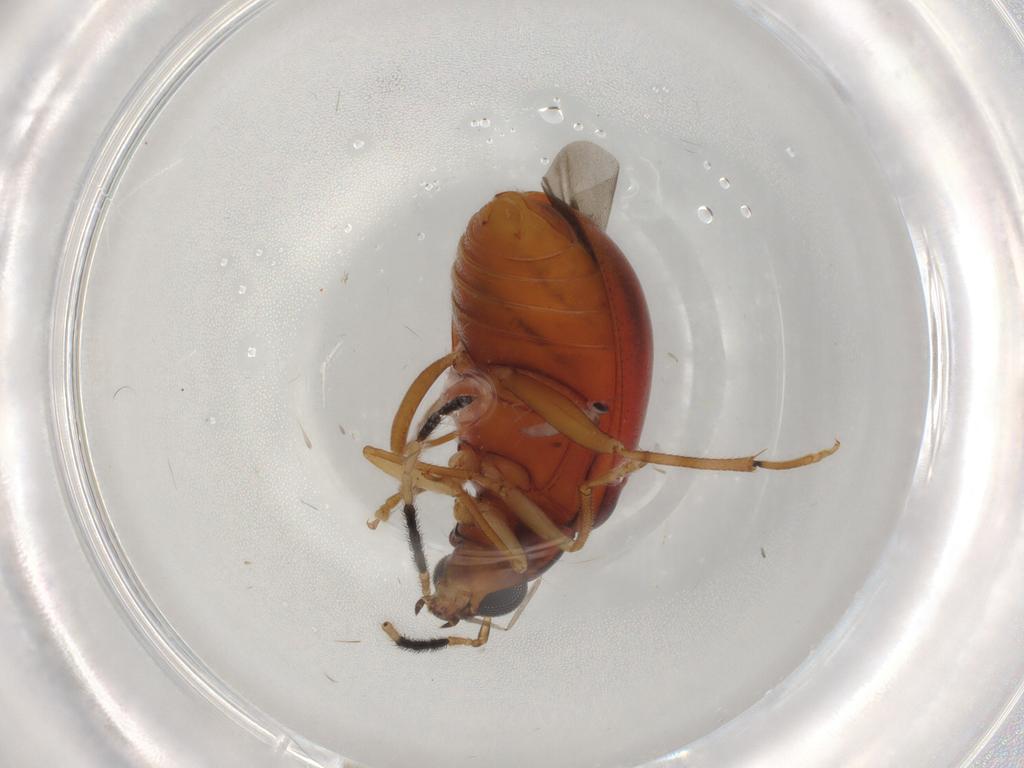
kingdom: Animalia
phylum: Arthropoda
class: Insecta
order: Coleoptera
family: Chrysomelidae
